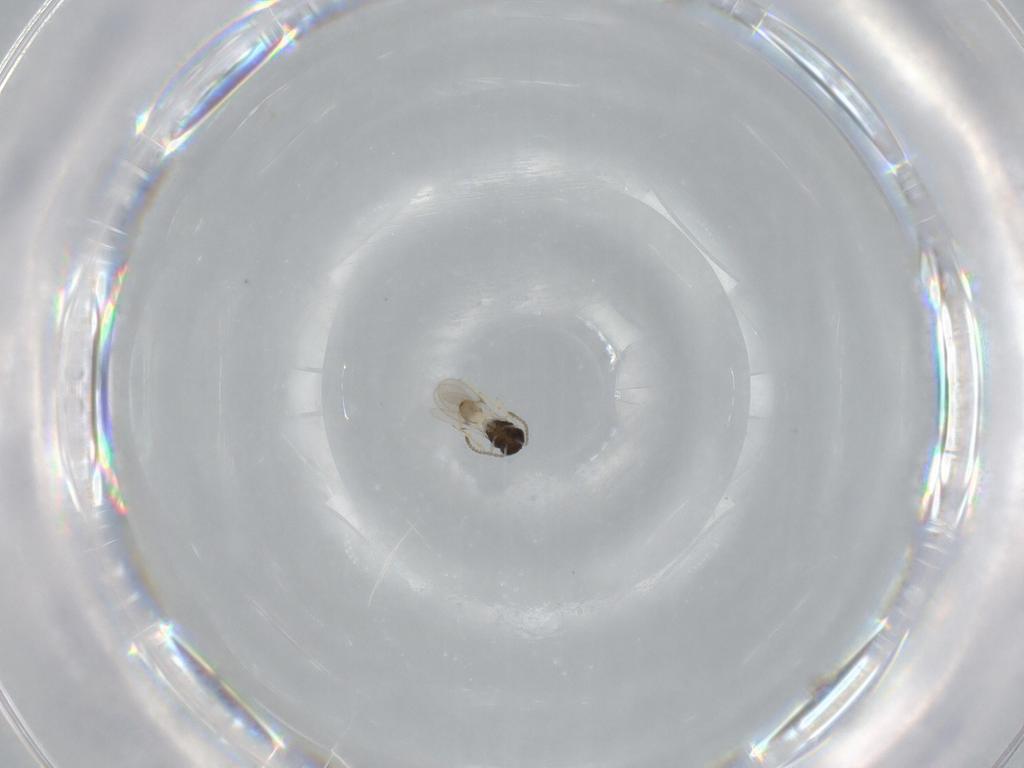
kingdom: Animalia
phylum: Arthropoda
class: Insecta
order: Hymenoptera
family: Scelionidae
